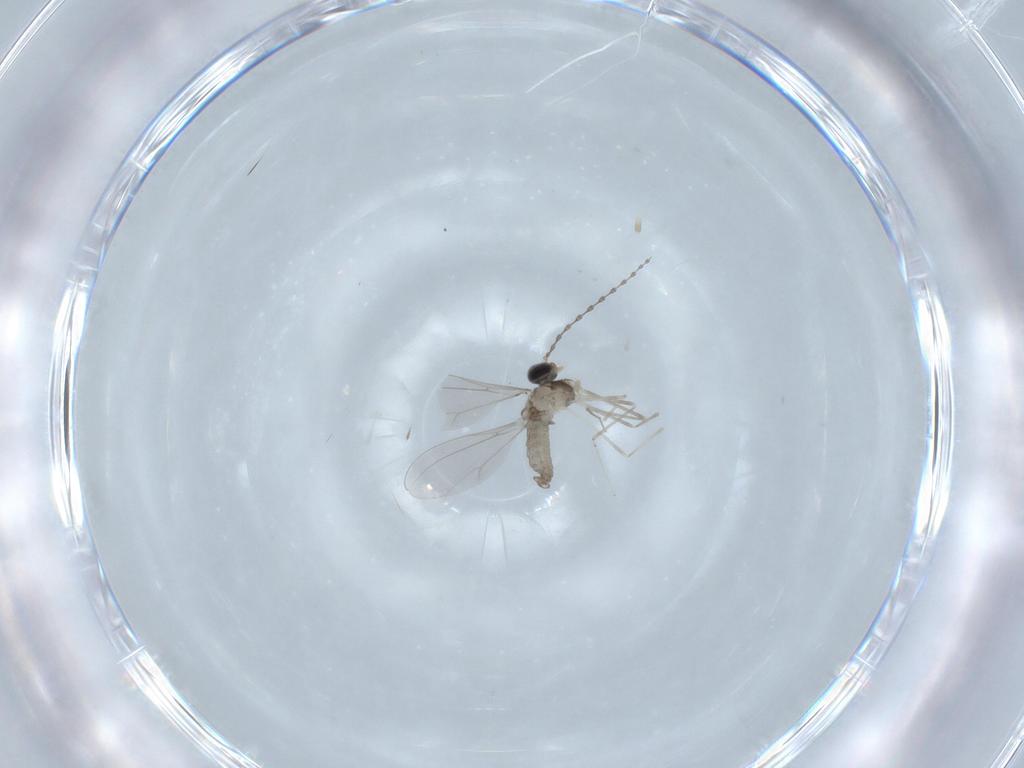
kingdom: Animalia
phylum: Arthropoda
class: Insecta
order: Diptera
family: Cecidomyiidae
